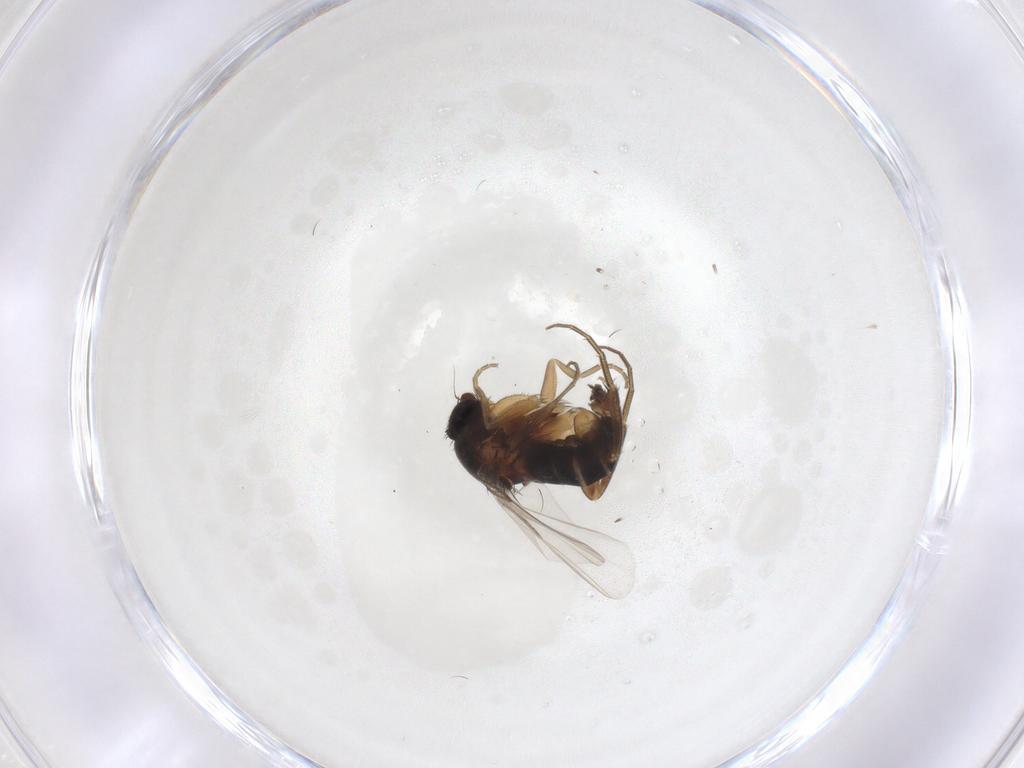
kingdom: Animalia
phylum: Arthropoda
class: Insecta
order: Diptera
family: Phoridae
